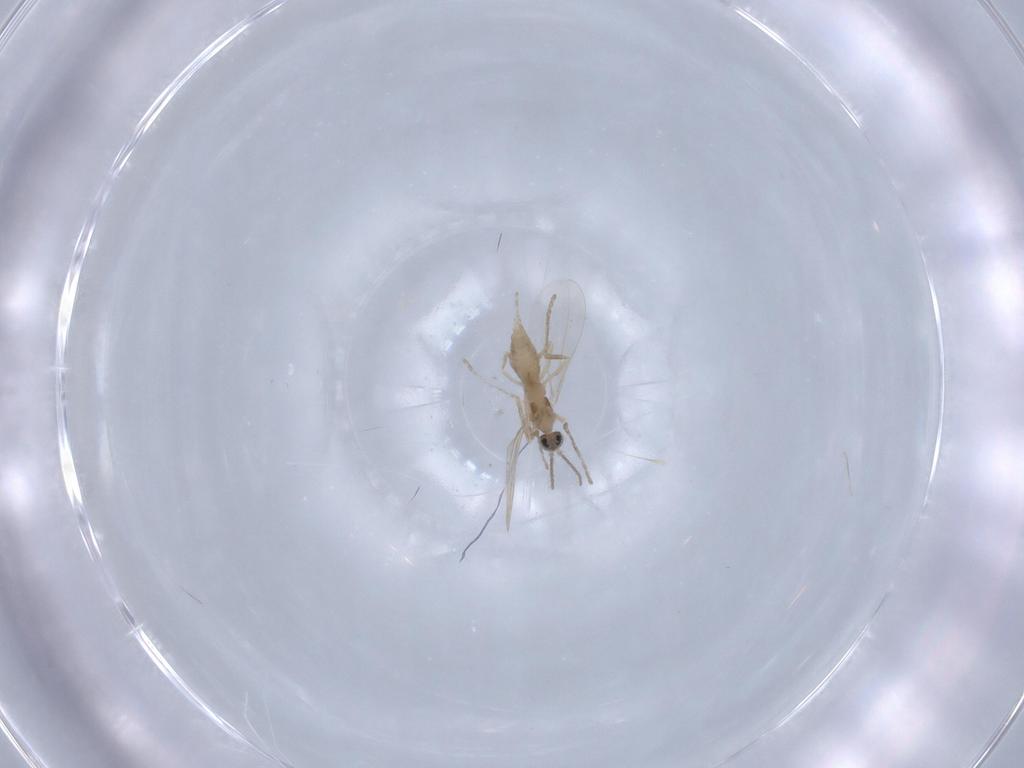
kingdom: Animalia
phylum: Arthropoda
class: Insecta
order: Diptera
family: Cecidomyiidae
